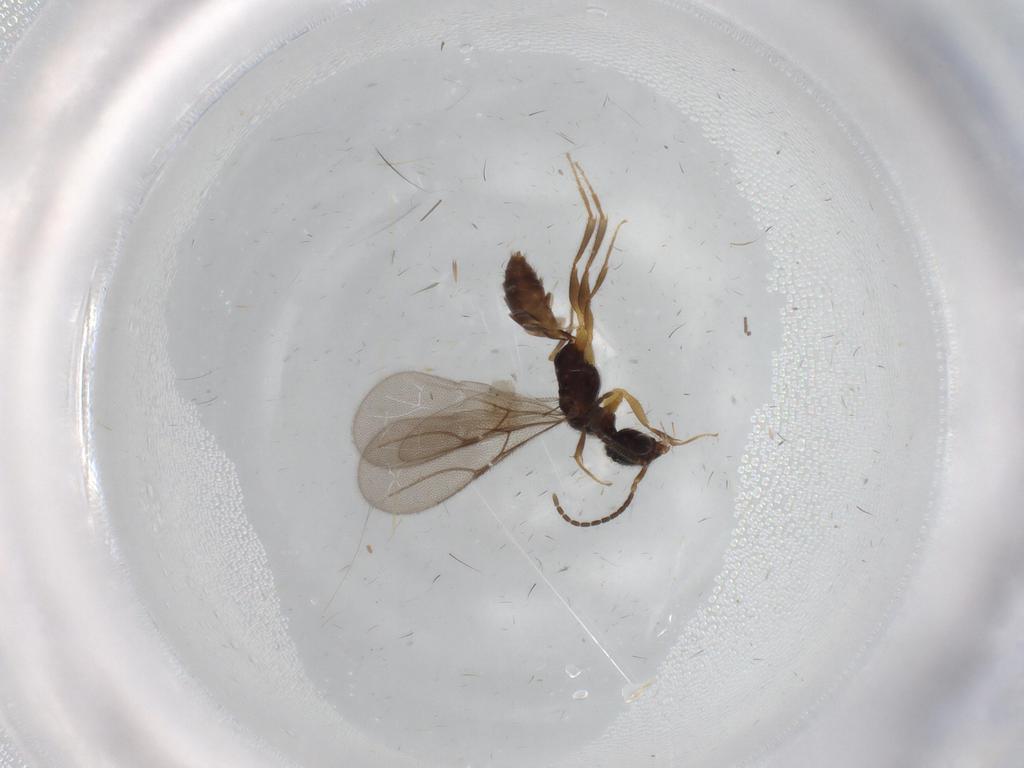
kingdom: Animalia
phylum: Arthropoda
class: Insecta
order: Hymenoptera
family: Bethylidae
